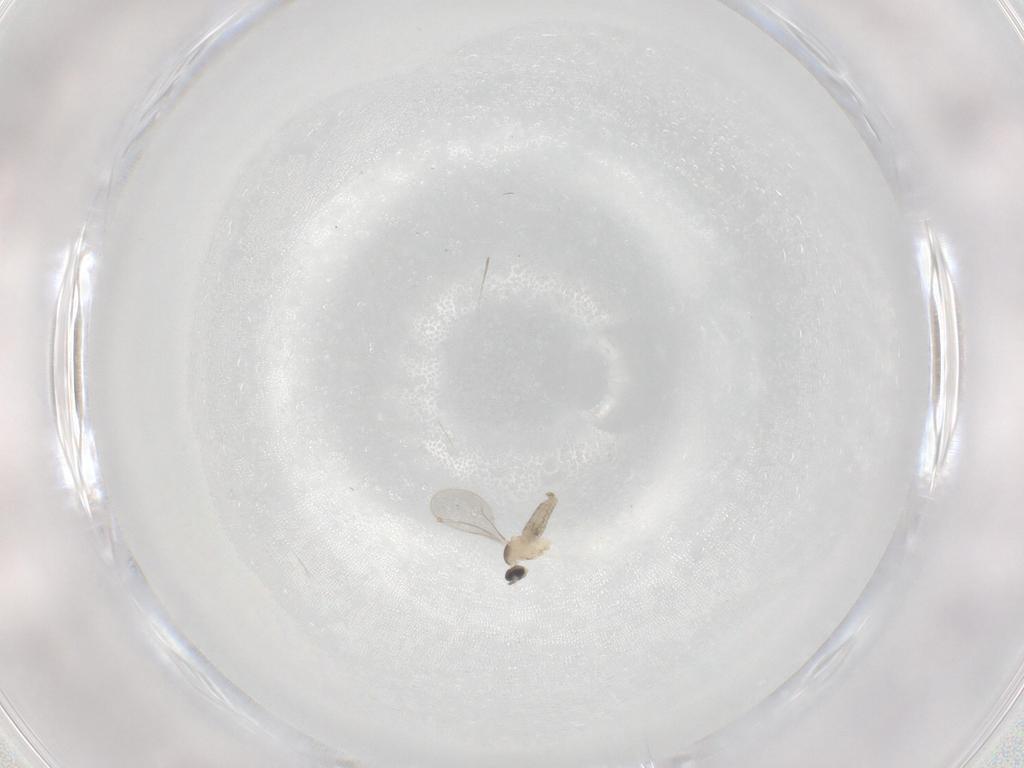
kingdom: Animalia
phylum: Arthropoda
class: Insecta
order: Diptera
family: Cecidomyiidae
